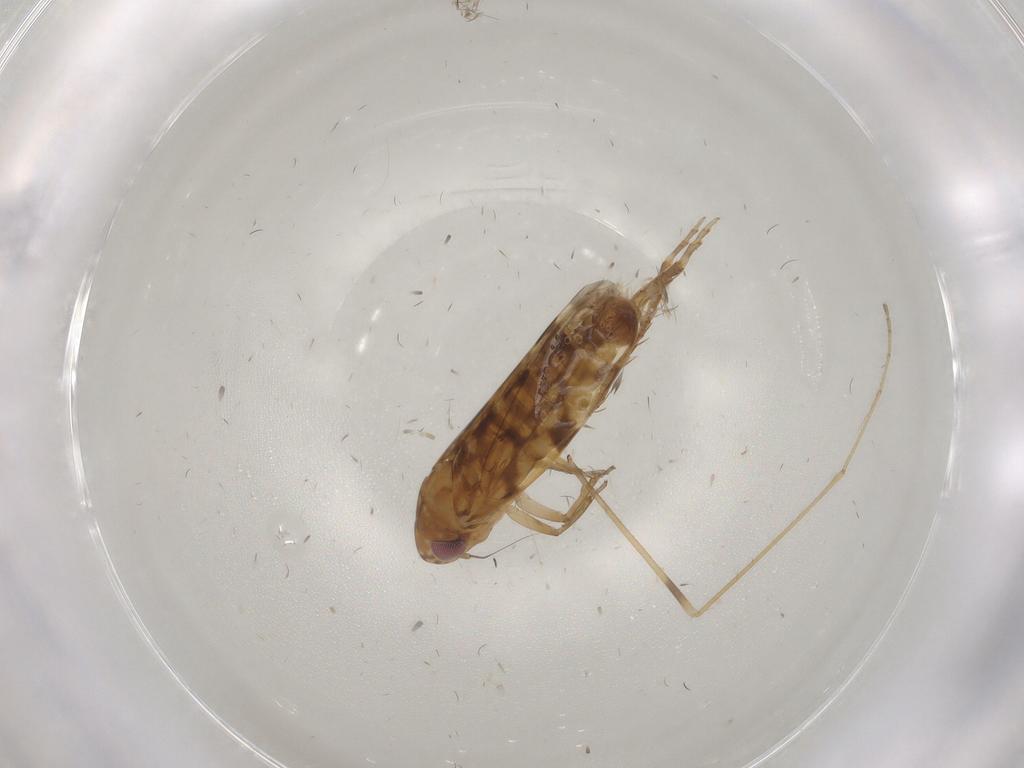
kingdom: Animalia
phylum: Arthropoda
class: Insecta
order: Hemiptera
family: Cicadellidae
